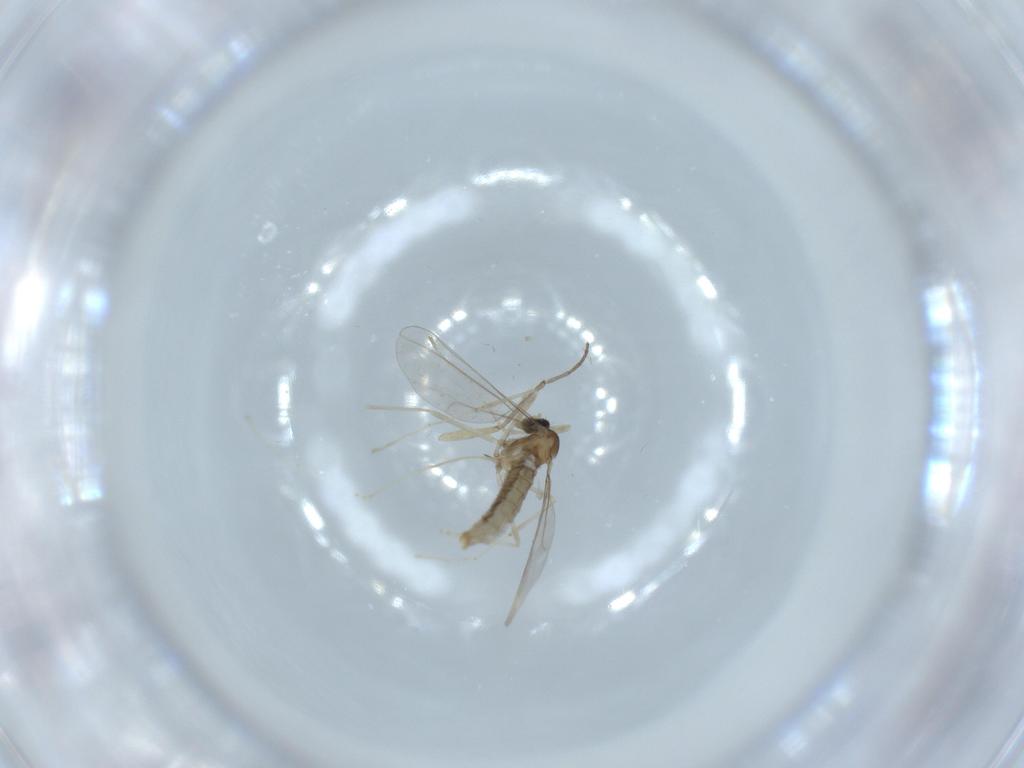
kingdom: Animalia
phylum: Arthropoda
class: Insecta
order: Diptera
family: Cecidomyiidae
